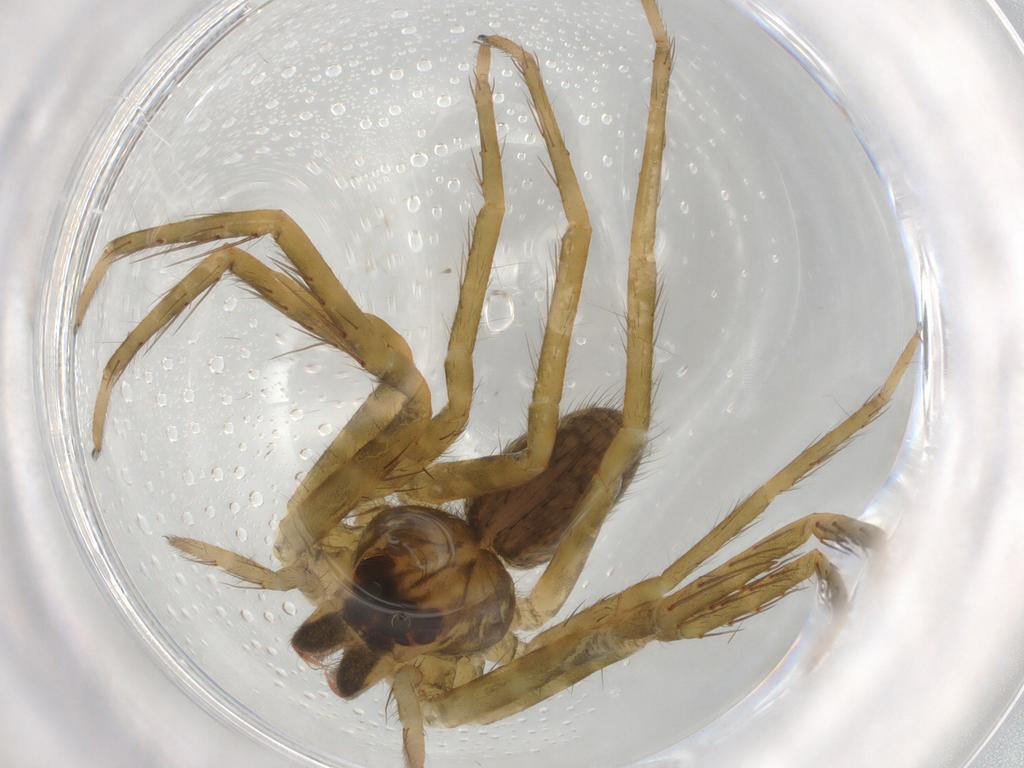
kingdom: Animalia
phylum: Arthropoda
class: Arachnida
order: Araneae
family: Ctenidae
